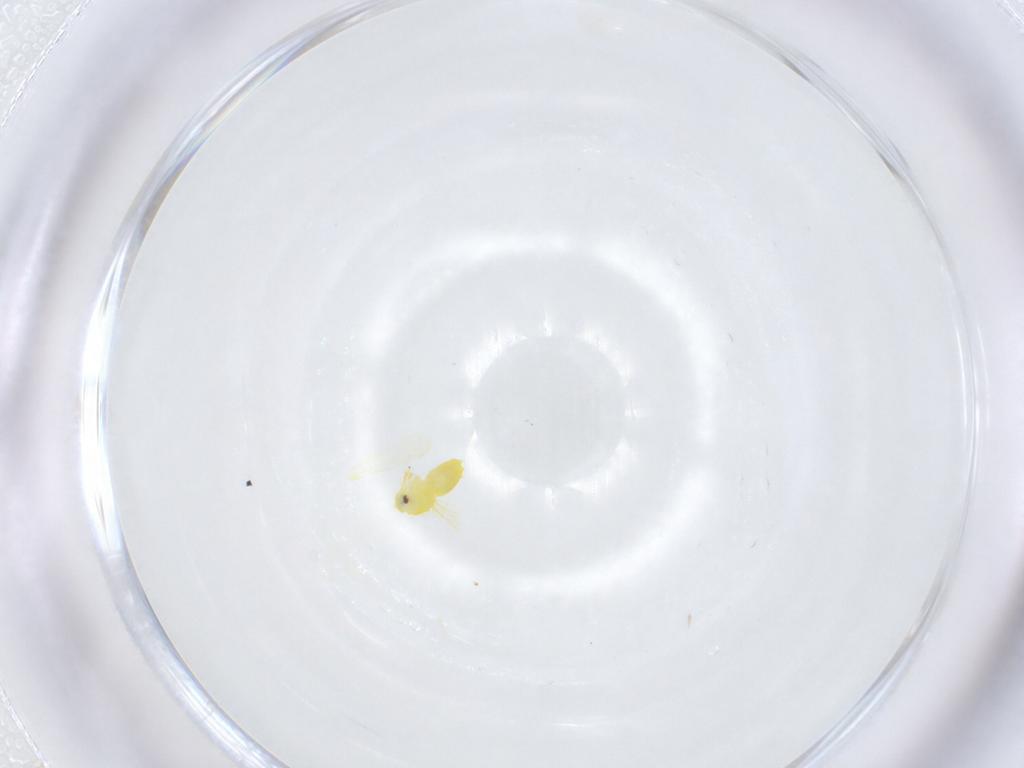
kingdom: Animalia
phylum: Arthropoda
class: Insecta
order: Hemiptera
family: Aleyrodidae
